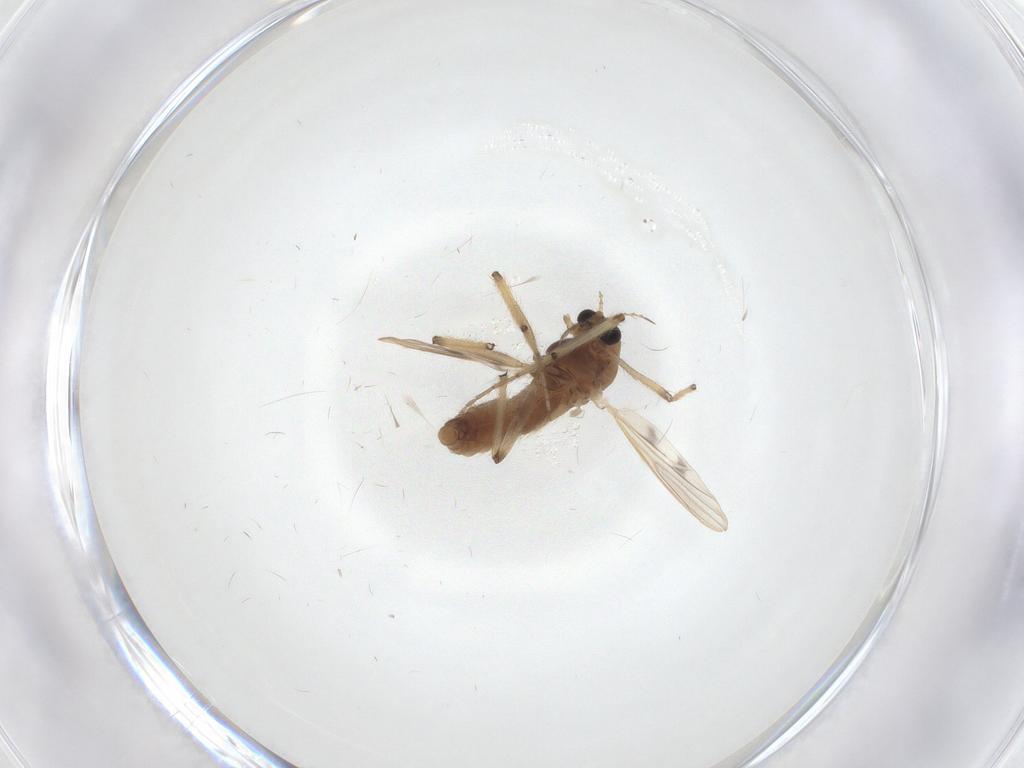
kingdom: Animalia
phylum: Arthropoda
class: Insecta
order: Diptera
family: Chironomidae
